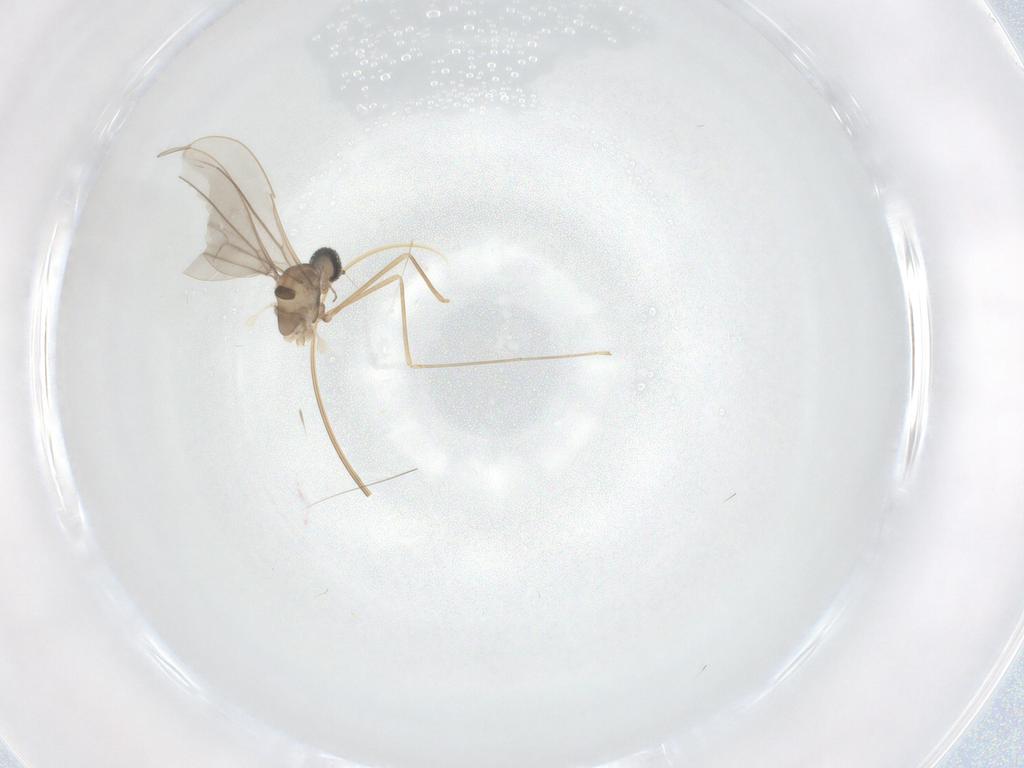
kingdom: Animalia
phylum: Arthropoda
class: Insecta
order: Diptera
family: Cecidomyiidae
